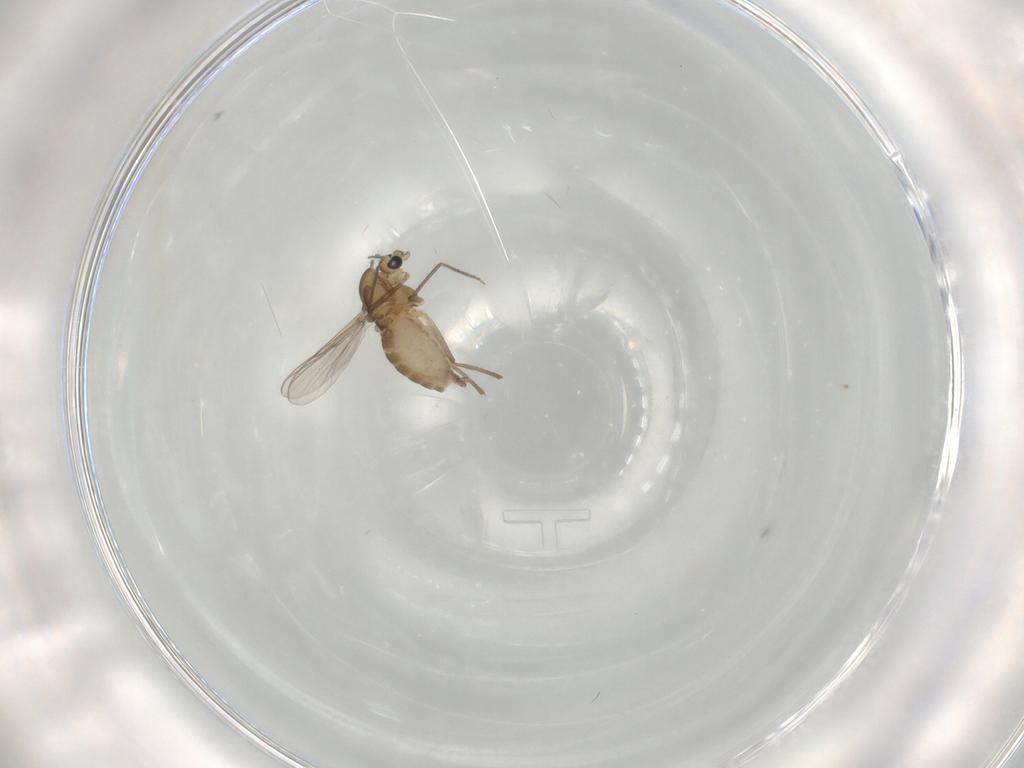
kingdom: Animalia
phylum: Arthropoda
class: Insecta
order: Diptera
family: Chironomidae
